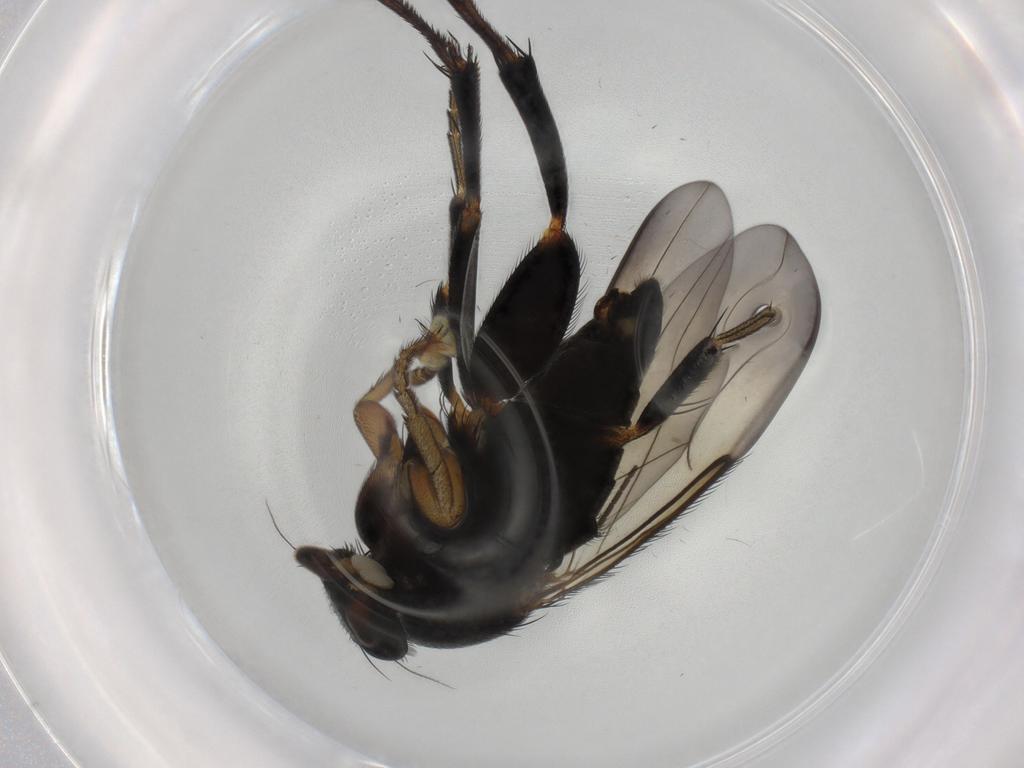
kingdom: Animalia
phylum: Arthropoda
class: Insecta
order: Diptera
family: Phoridae
